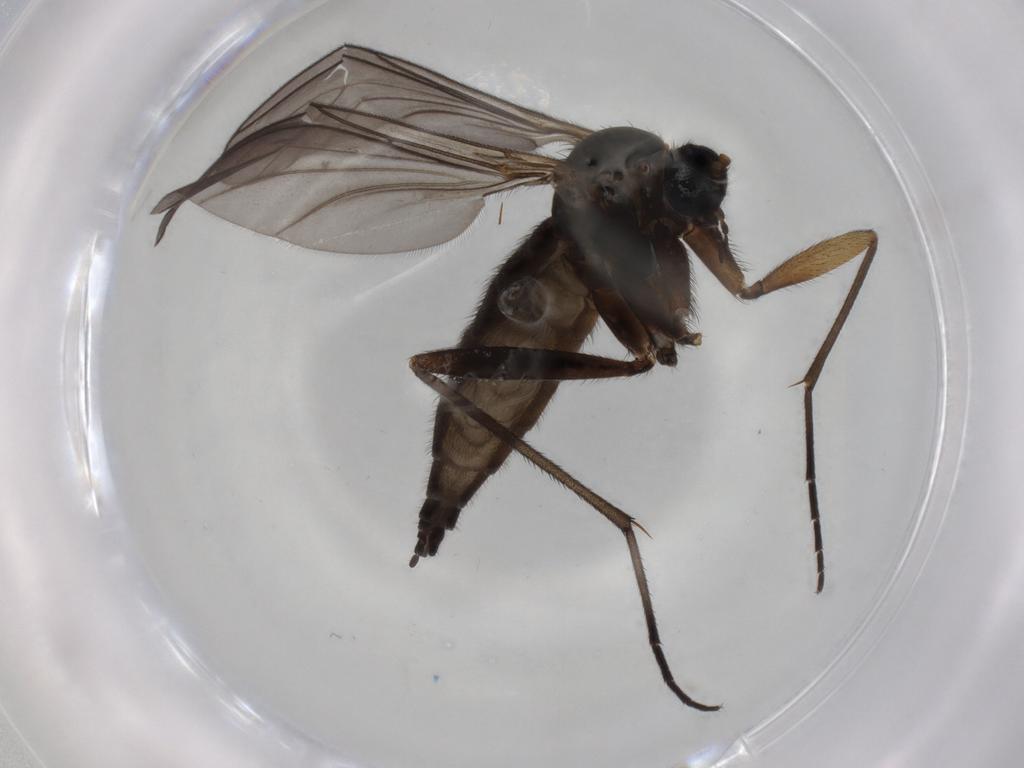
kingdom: Animalia
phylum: Arthropoda
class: Insecta
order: Diptera
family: Sciaridae
